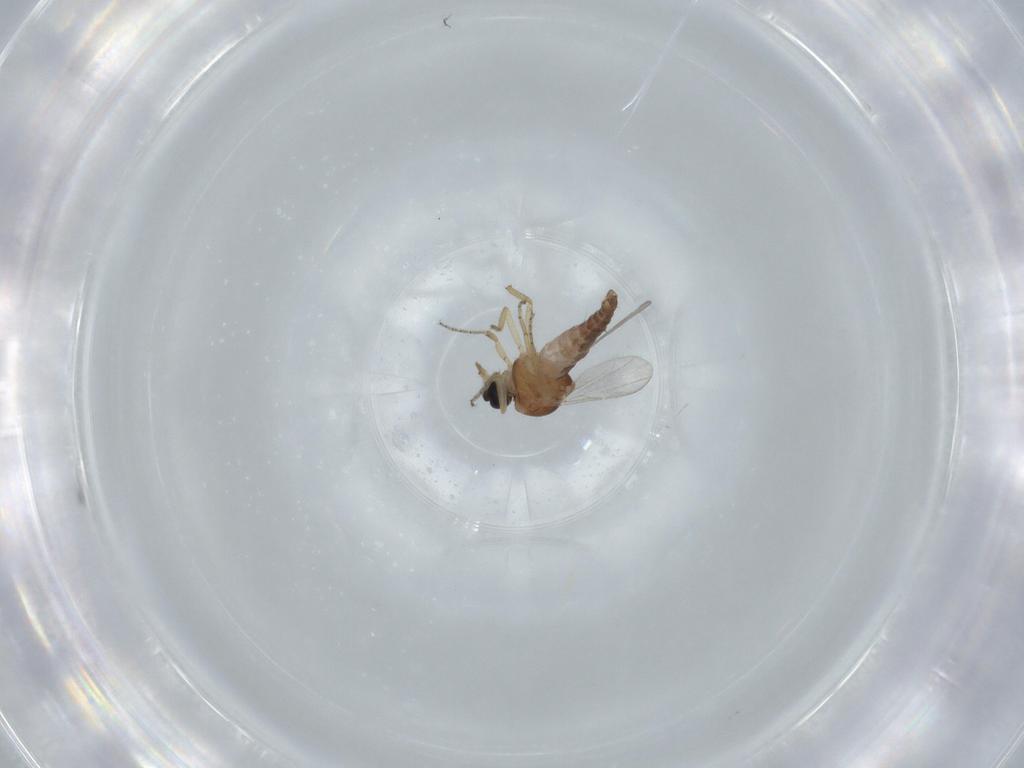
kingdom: Animalia
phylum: Arthropoda
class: Insecta
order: Diptera
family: Ceratopogonidae
